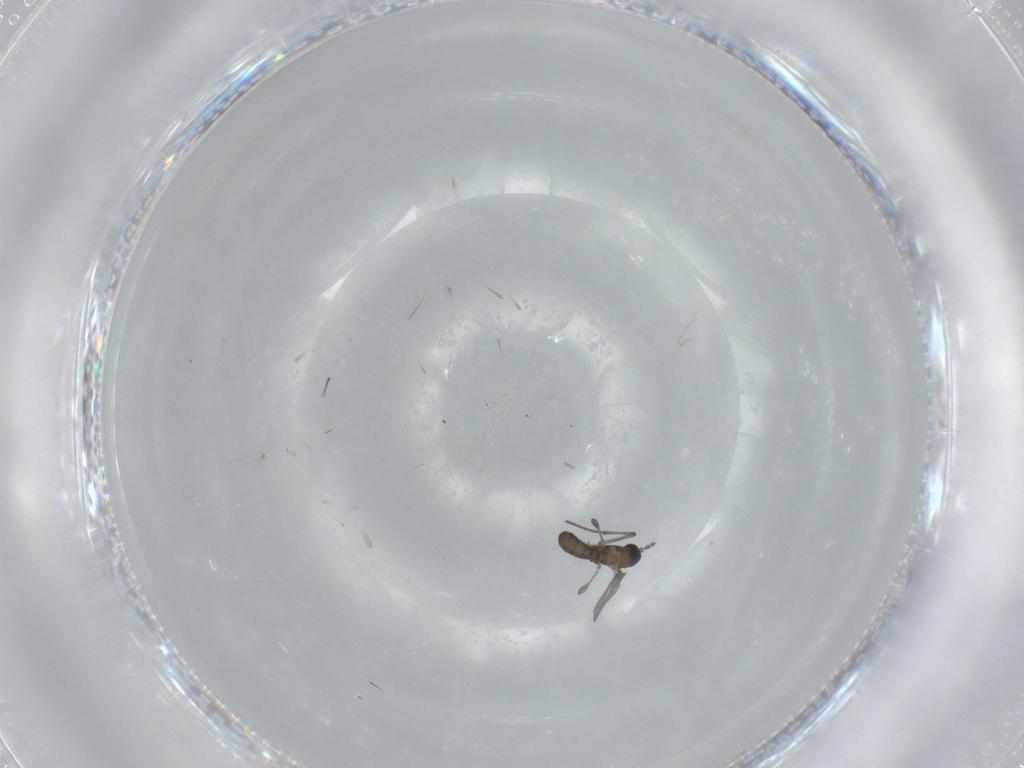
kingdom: Animalia
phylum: Arthropoda
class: Insecta
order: Diptera
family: Sciaridae
